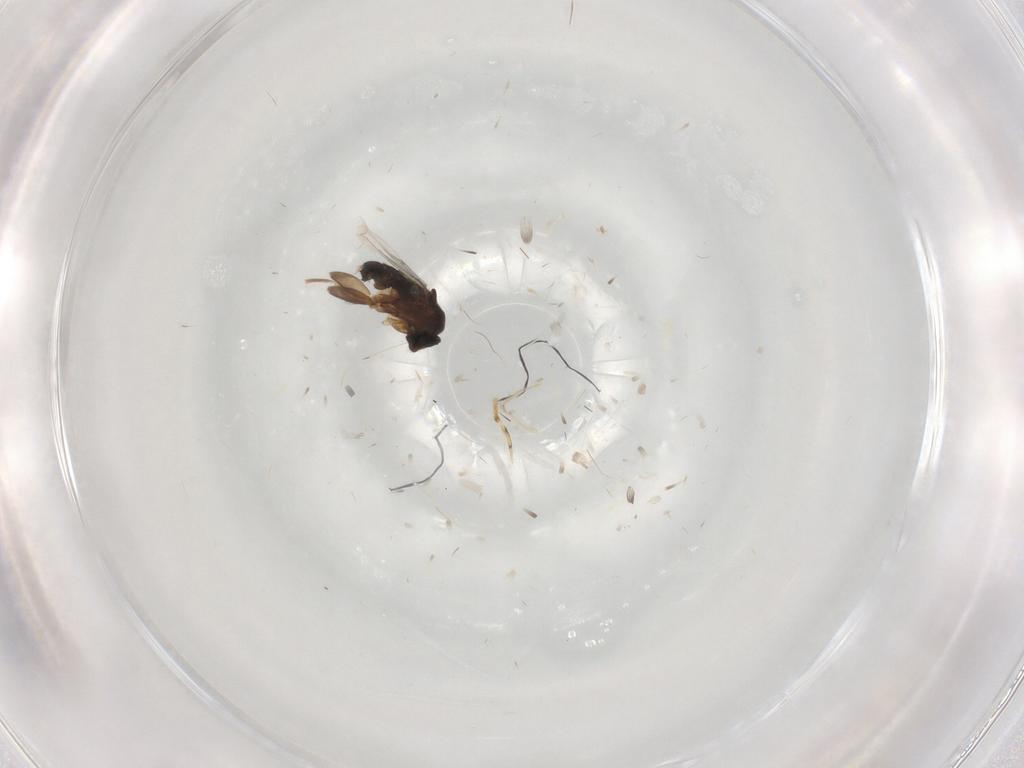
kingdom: Animalia
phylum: Arthropoda
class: Insecta
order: Diptera
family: Phoridae
